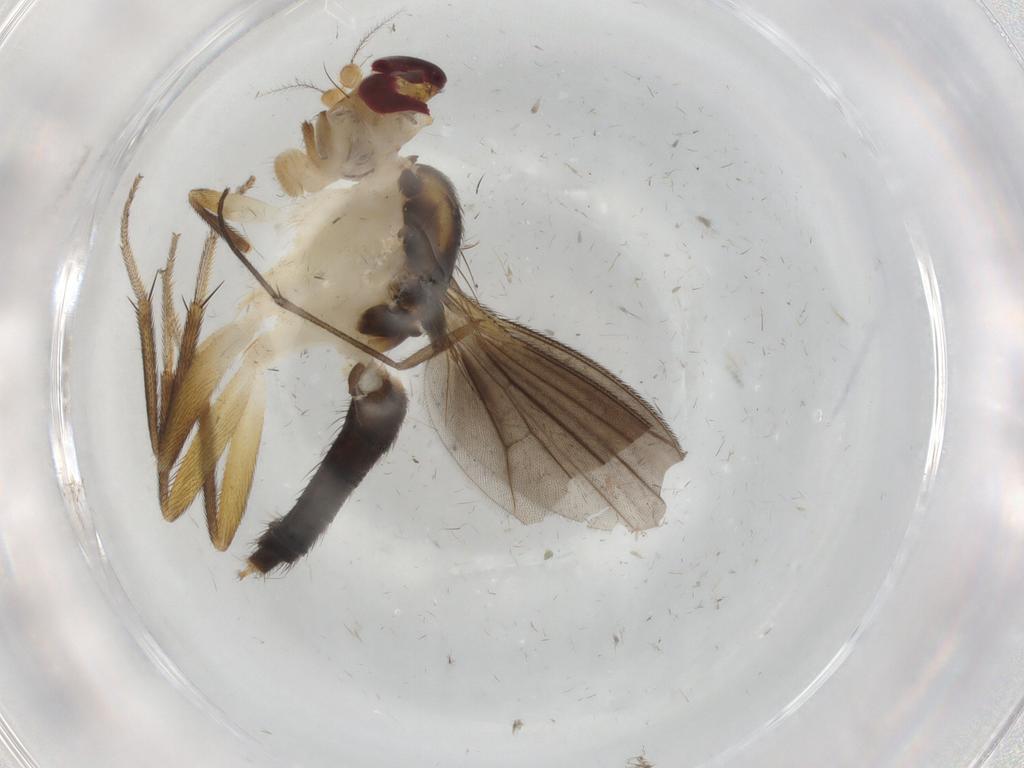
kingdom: Animalia
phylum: Arthropoda
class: Insecta
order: Diptera
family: Clusiidae
